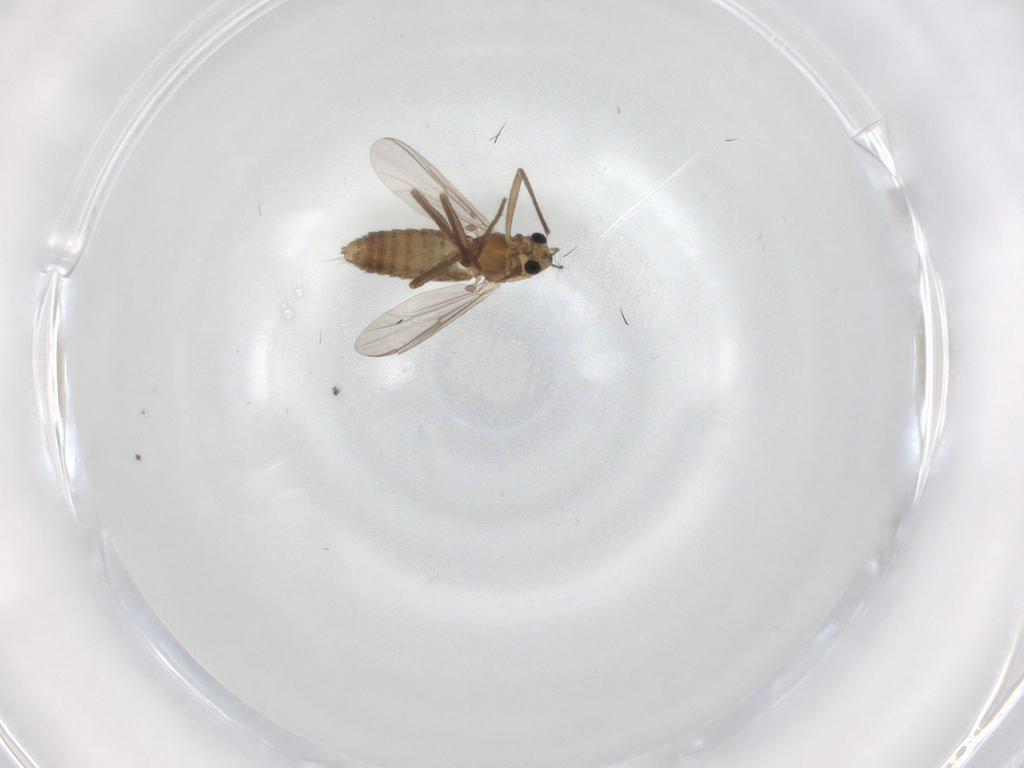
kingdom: Animalia
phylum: Arthropoda
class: Insecta
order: Diptera
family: Chironomidae
